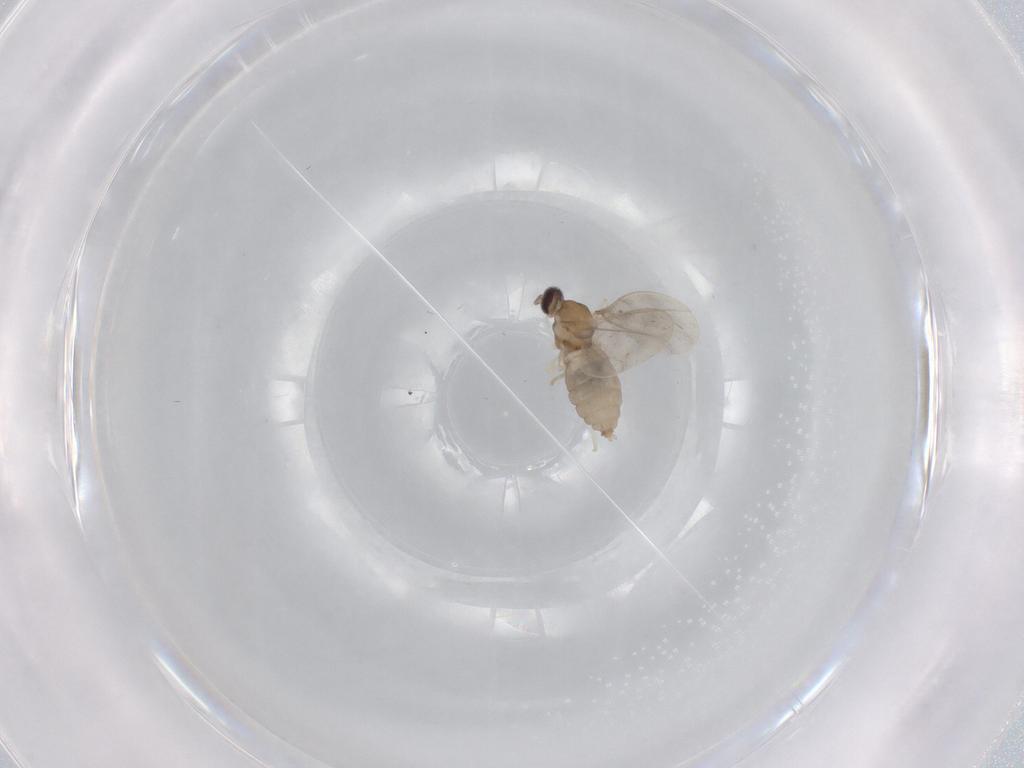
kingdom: Animalia
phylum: Arthropoda
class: Insecta
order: Diptera
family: Cecidomyiidae
